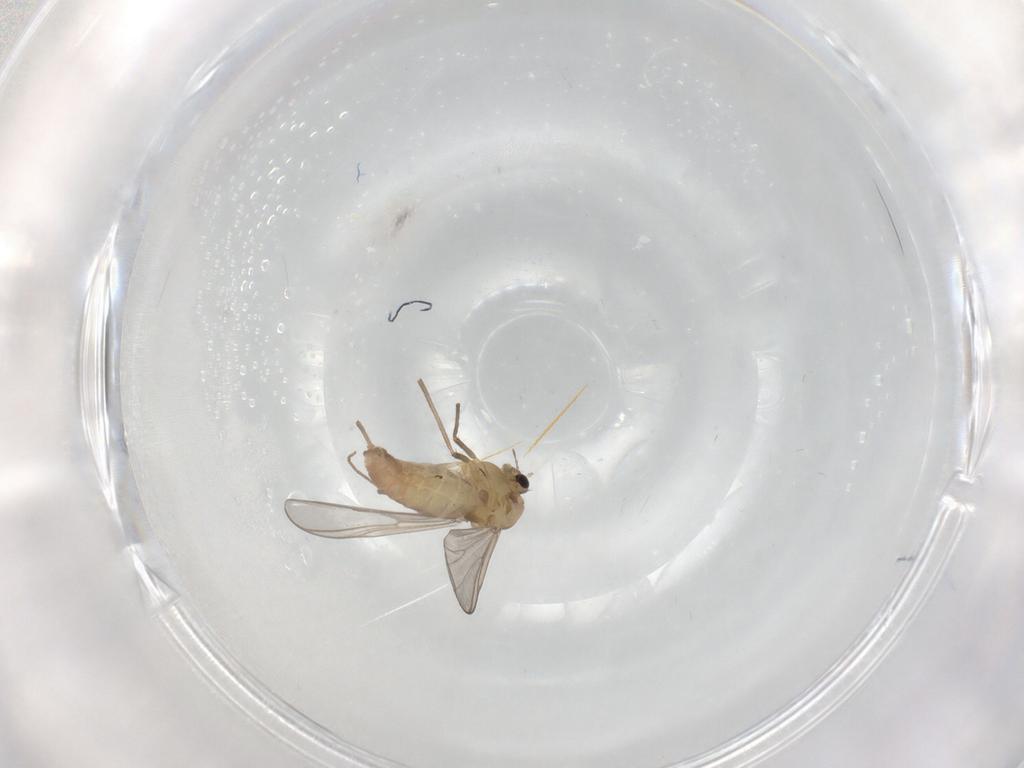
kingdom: Animalia
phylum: Arthropoda
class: Insecta
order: Diptera
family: Chironomidae
